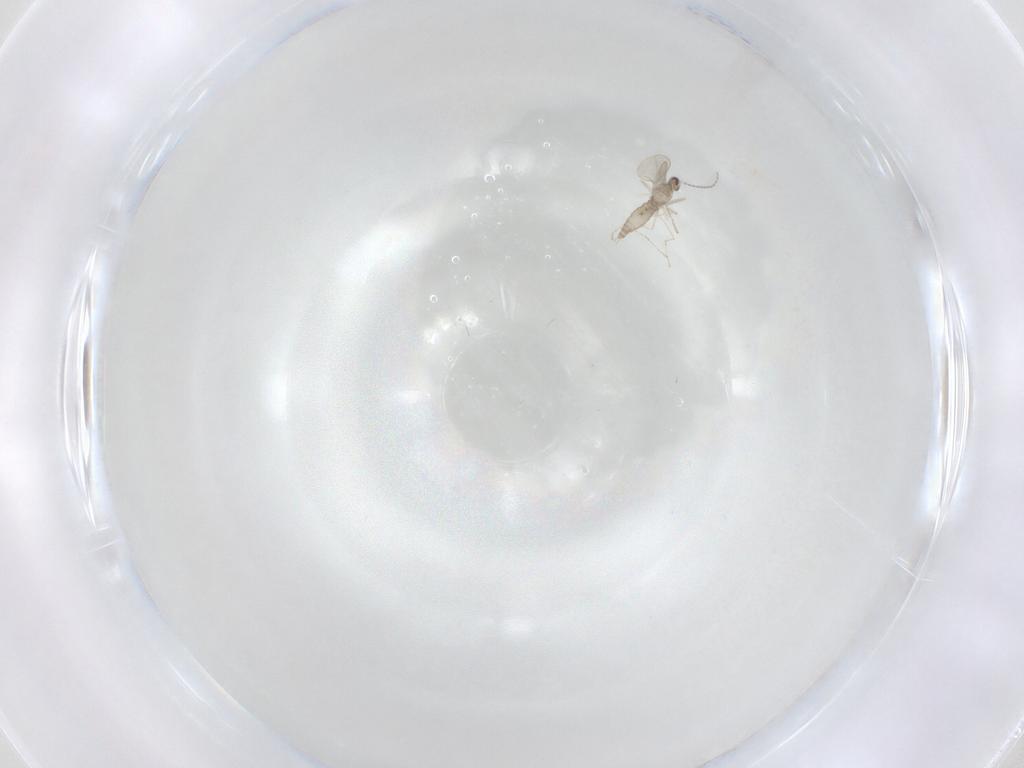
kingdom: Animalia
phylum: Arthropoda
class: Insecta
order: Diptera
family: Cecidomyiidae
